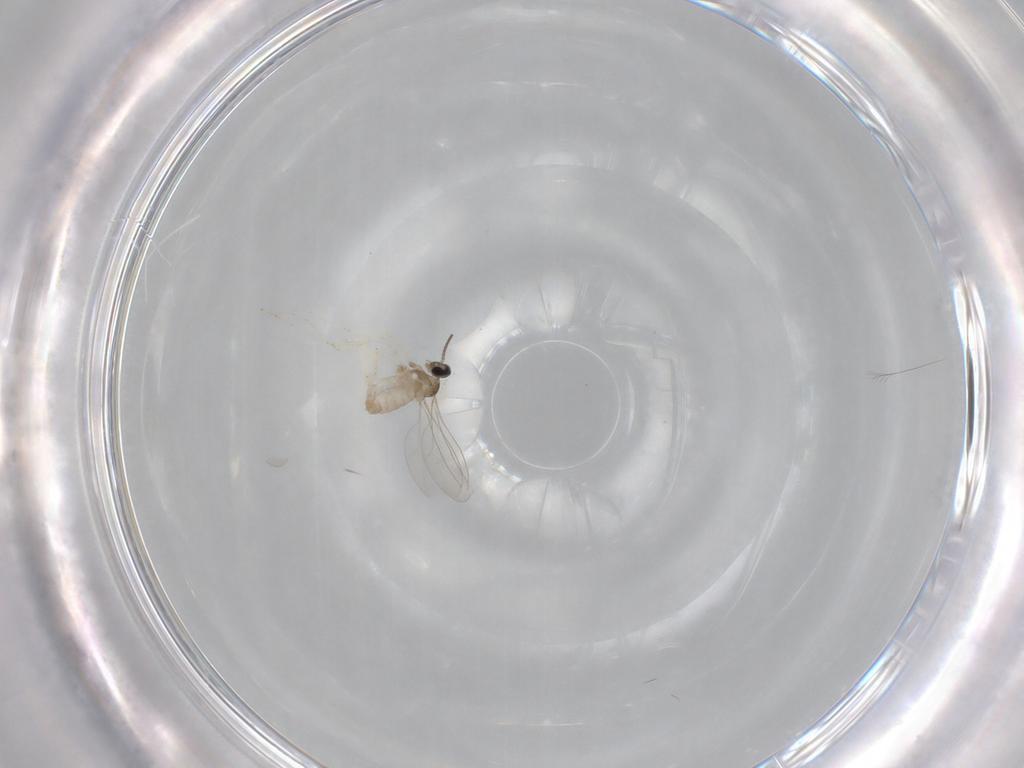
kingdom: Animalia
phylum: Arthropoda
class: Insecta
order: Diptera
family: Cecidomyiidae
